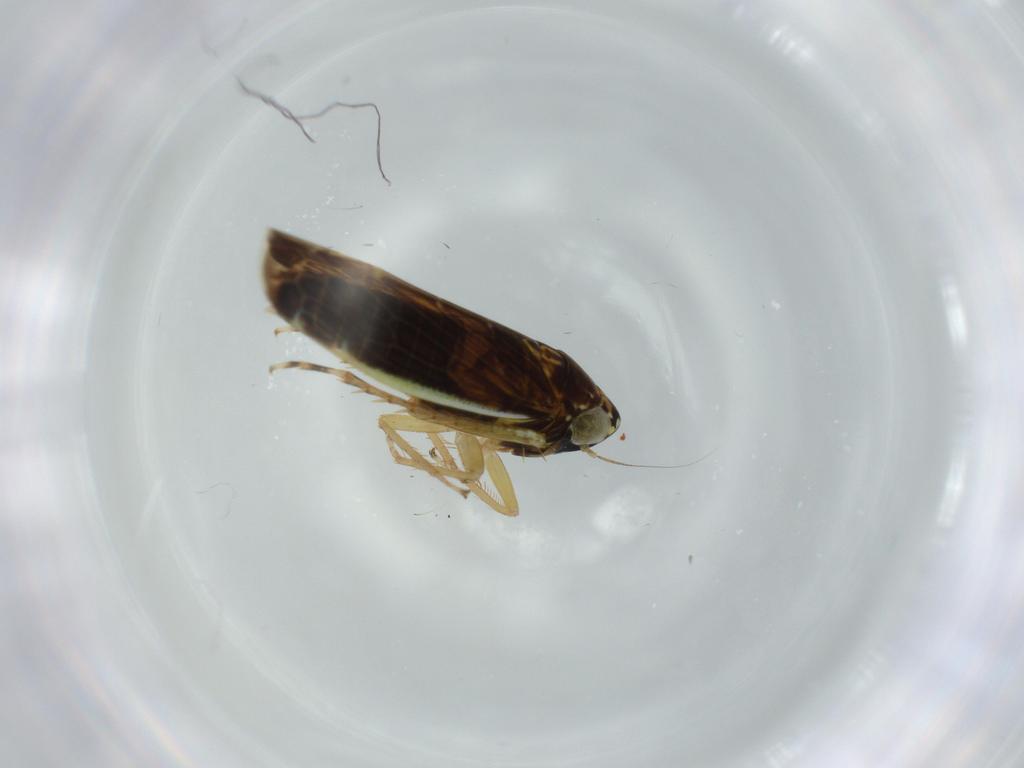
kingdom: Animalia
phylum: Arthropoda
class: Insecta
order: Hemiptera
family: Cicadellidae
